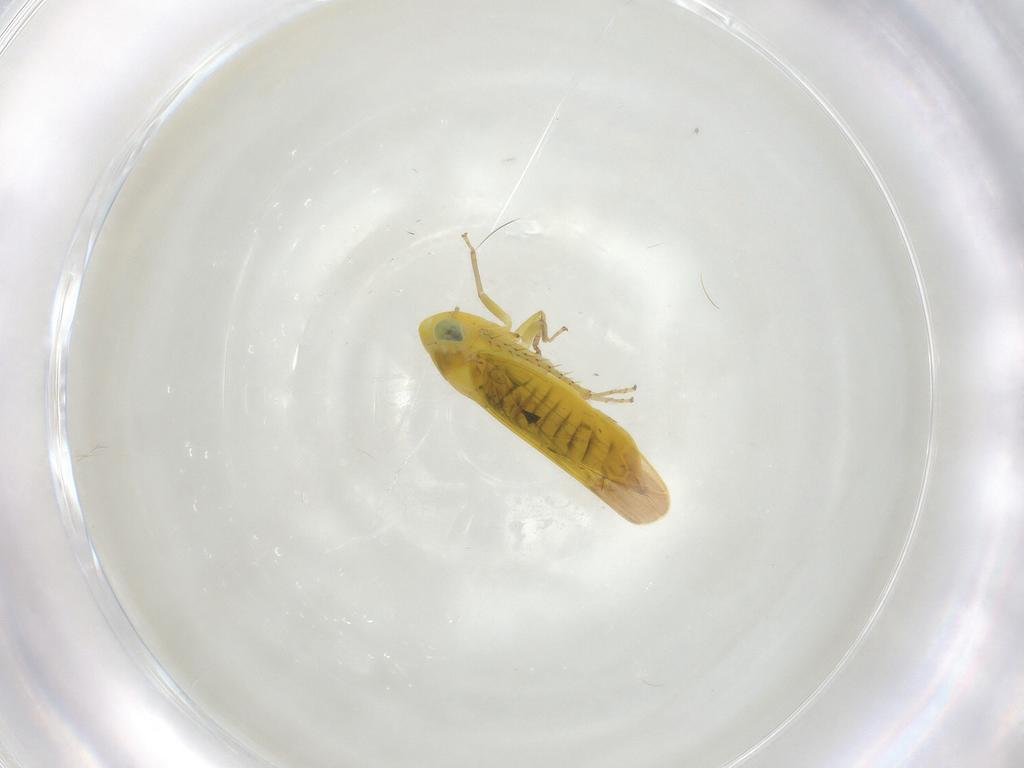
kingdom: Animalia
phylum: Arthropoda
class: Insecta
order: Hemiptera
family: Cicadellidae
